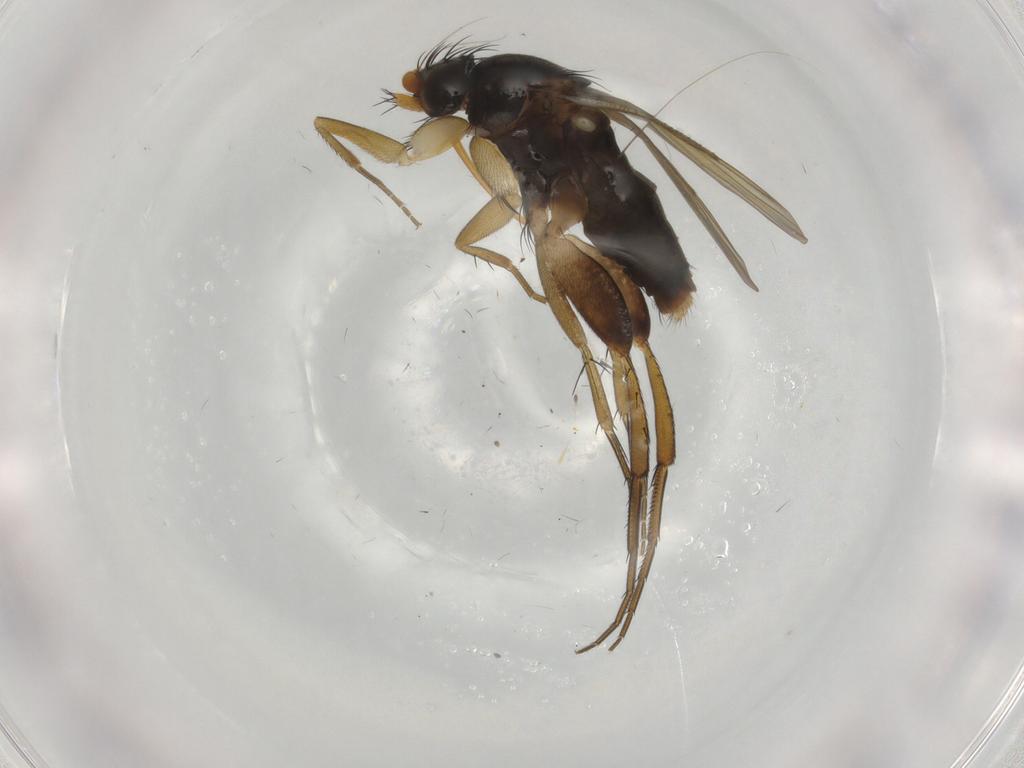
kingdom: Animalia
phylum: Arthropoda
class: Insecta
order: Diptera
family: Phoridae
